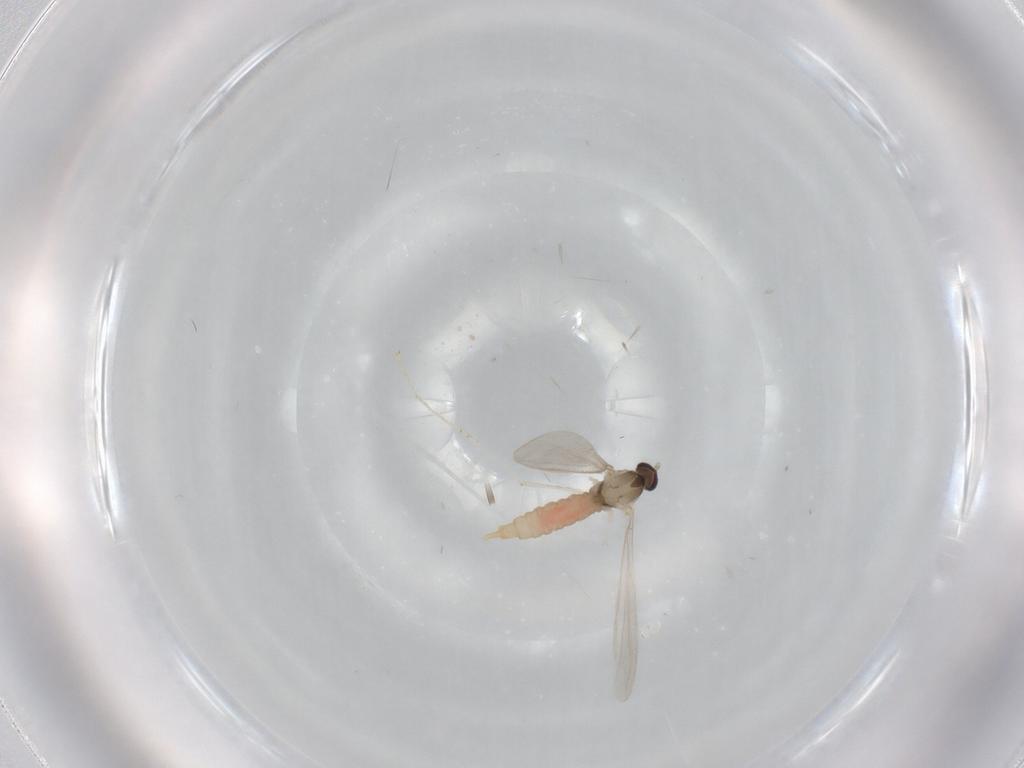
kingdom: Animalia
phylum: Arthropoda
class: Insecta
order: Diptera
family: Cecidomyiidae
